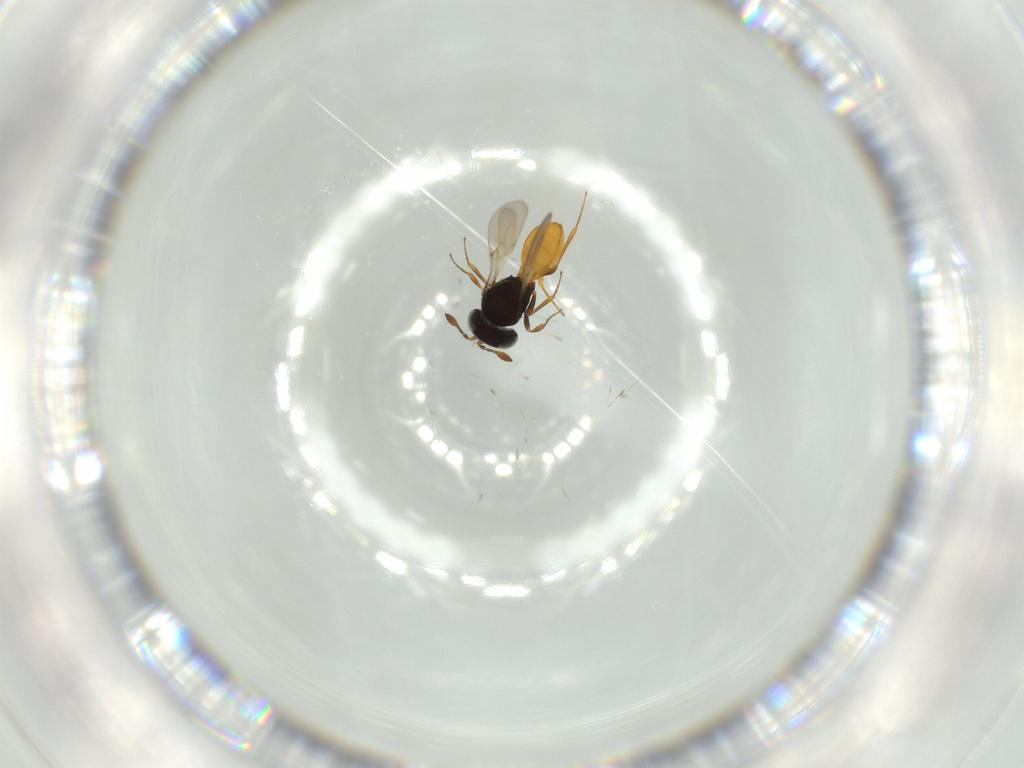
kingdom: Animalia
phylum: Arthropoda
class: Insecta
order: Hymenoptera
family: Scelionidae
